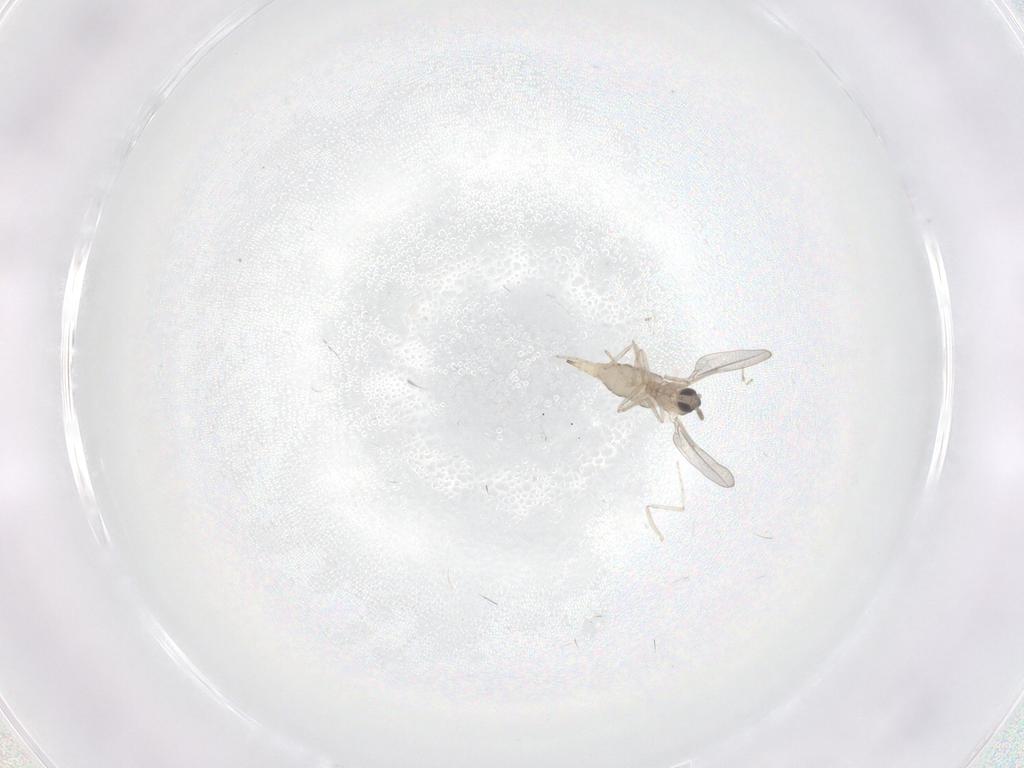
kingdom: Animalia
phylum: Arthropoda
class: Insecta
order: Diptera
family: Cecidomyiidae
